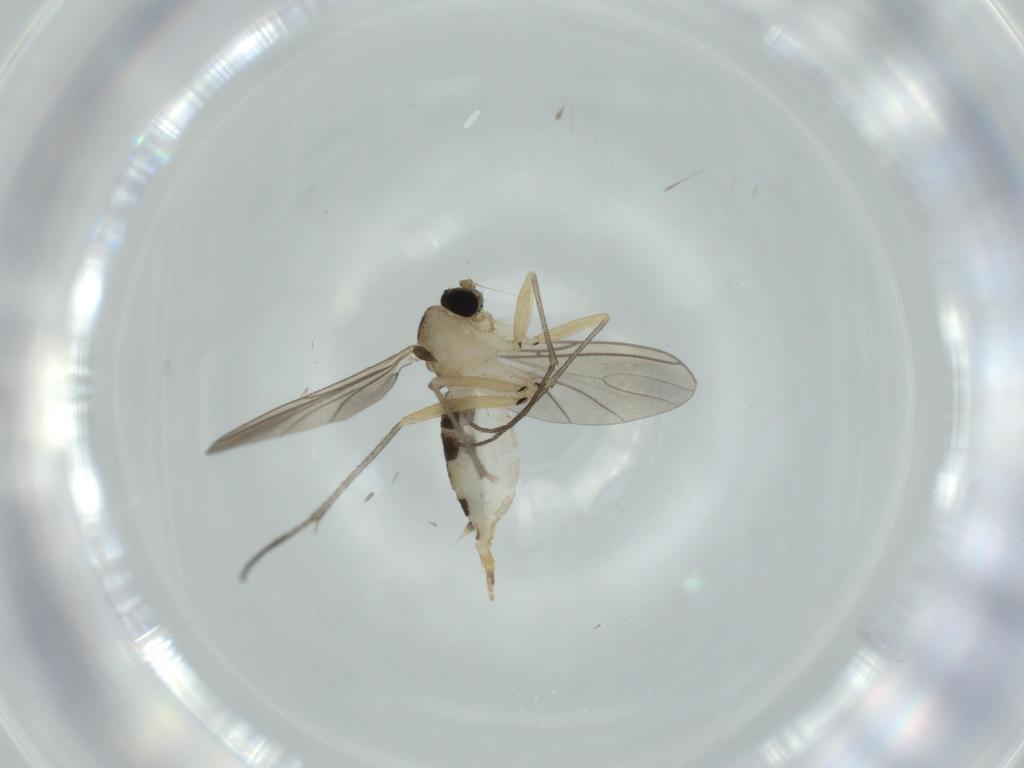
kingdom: Animalia
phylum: Arthropoda
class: Insecta
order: Diptera
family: Sciaridae
